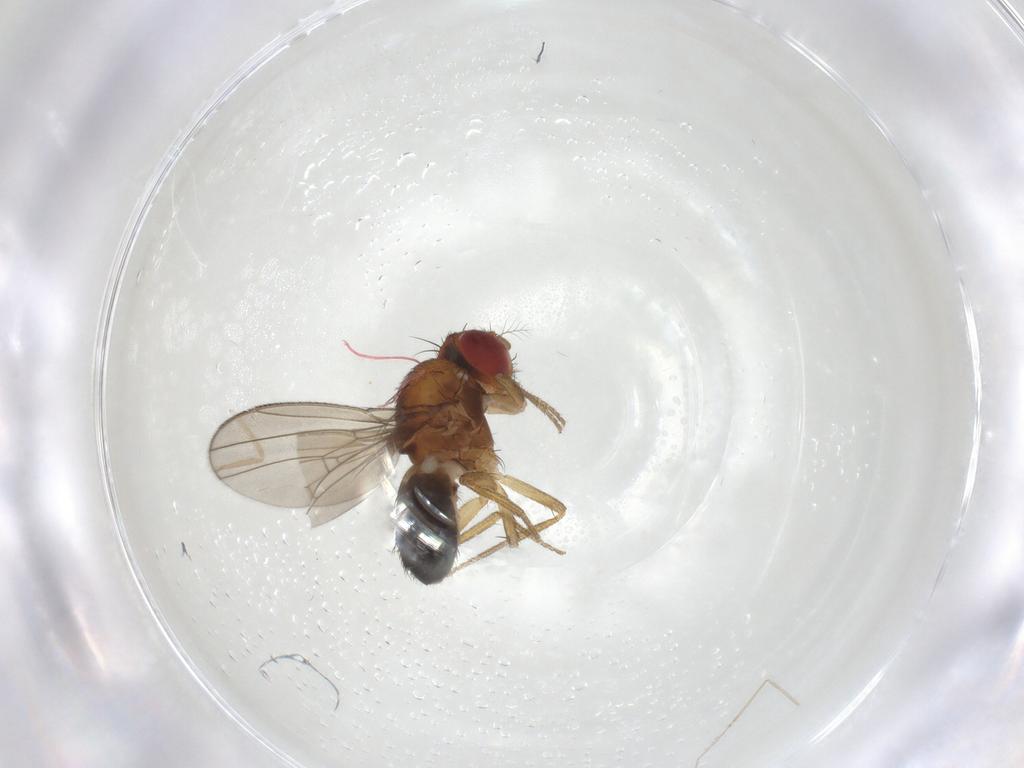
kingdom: Animalia
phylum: Arthropoda
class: Insecta
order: Diptera
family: Drosophilidae
